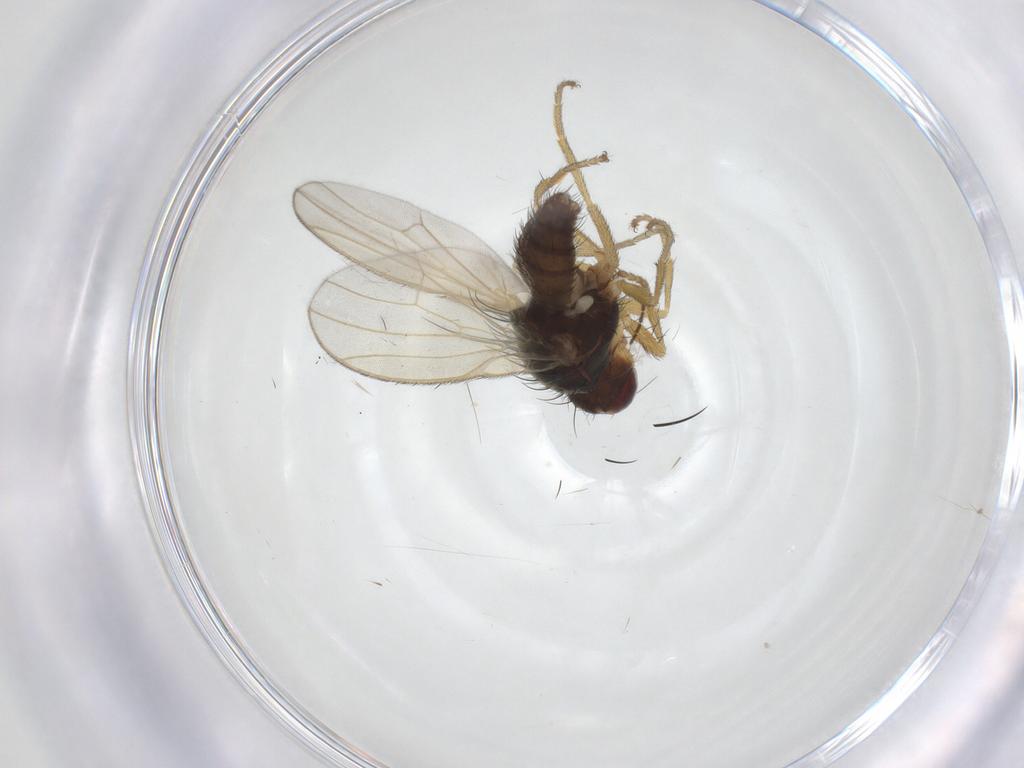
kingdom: Animalia
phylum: Arthropoda
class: Insecta
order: Diptera
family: Heleomyzidae
